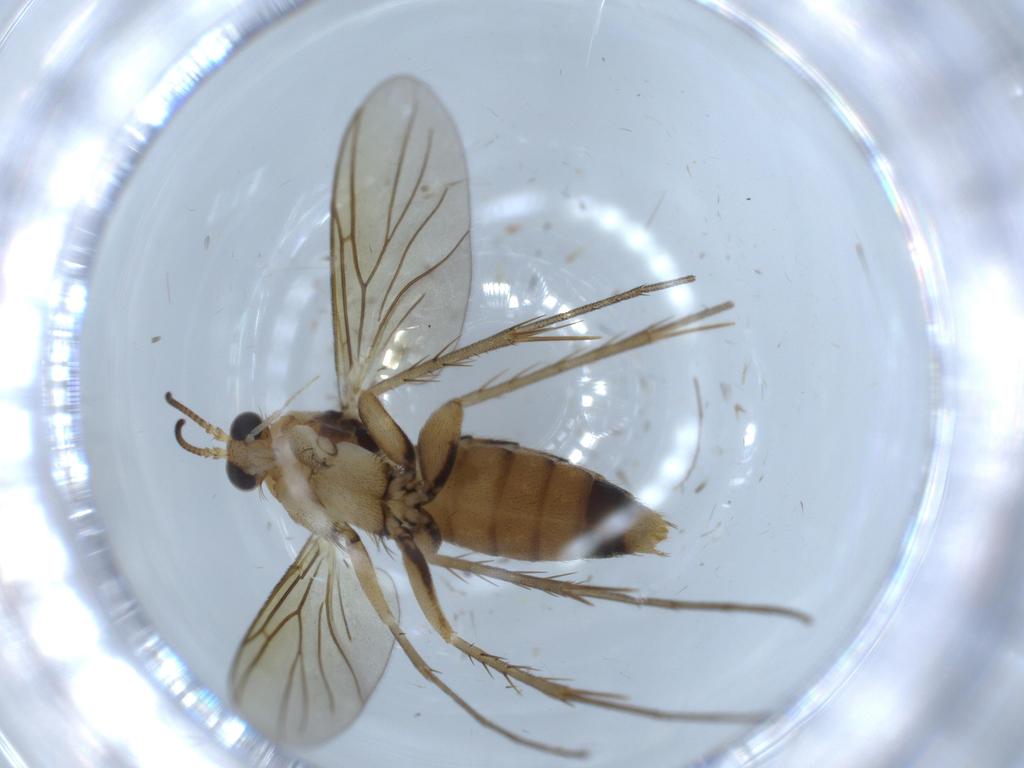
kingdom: Animalia
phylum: Arthropoda
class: Insecta
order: Diptera
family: Mycetophilidae
